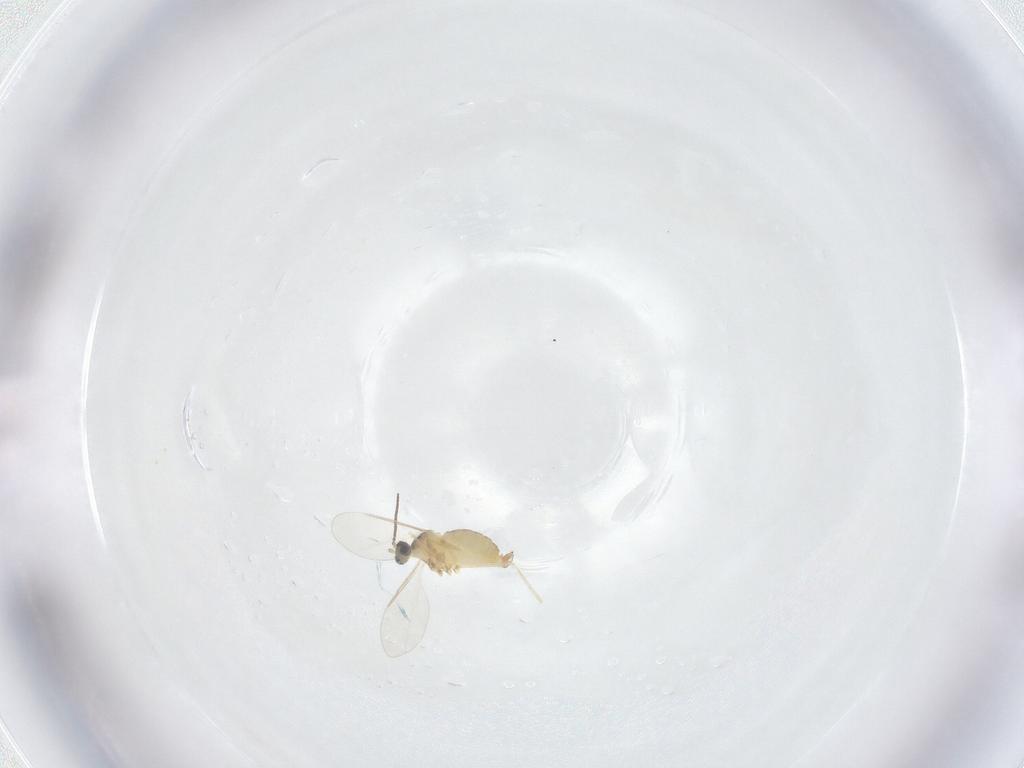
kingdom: Animalia
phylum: Arthropoda
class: Insecta
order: Diptera
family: Cecidomyiidae
